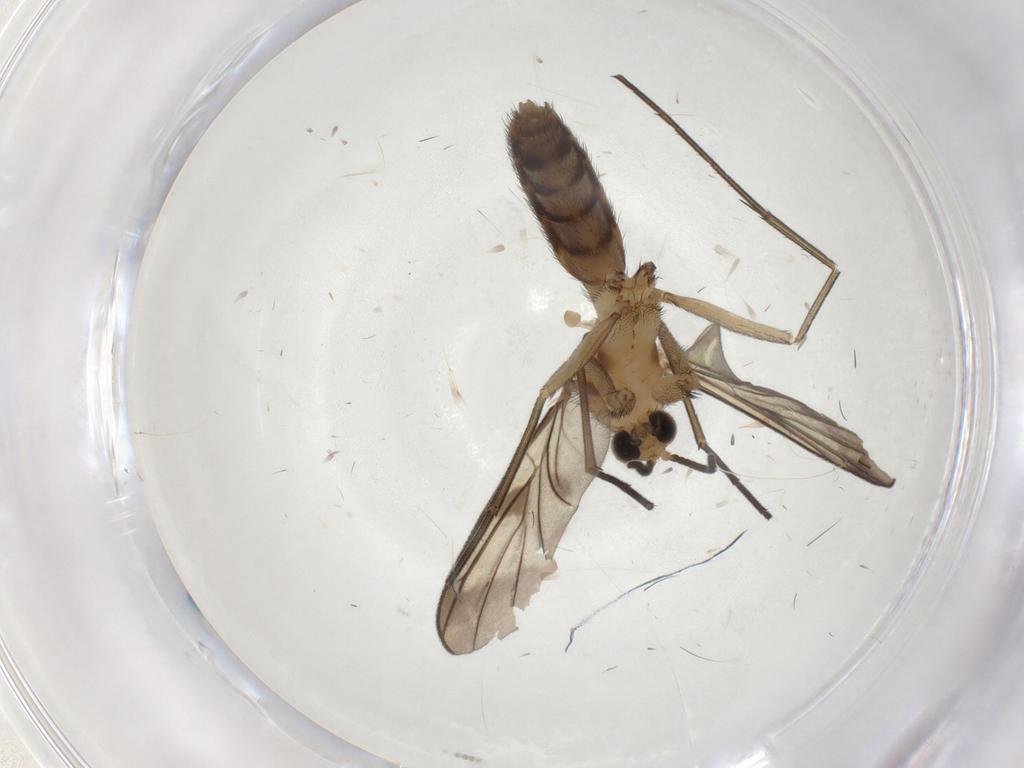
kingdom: Animalia
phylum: Arthropoda
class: Insecta
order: Diptera
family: Keroplatidae
